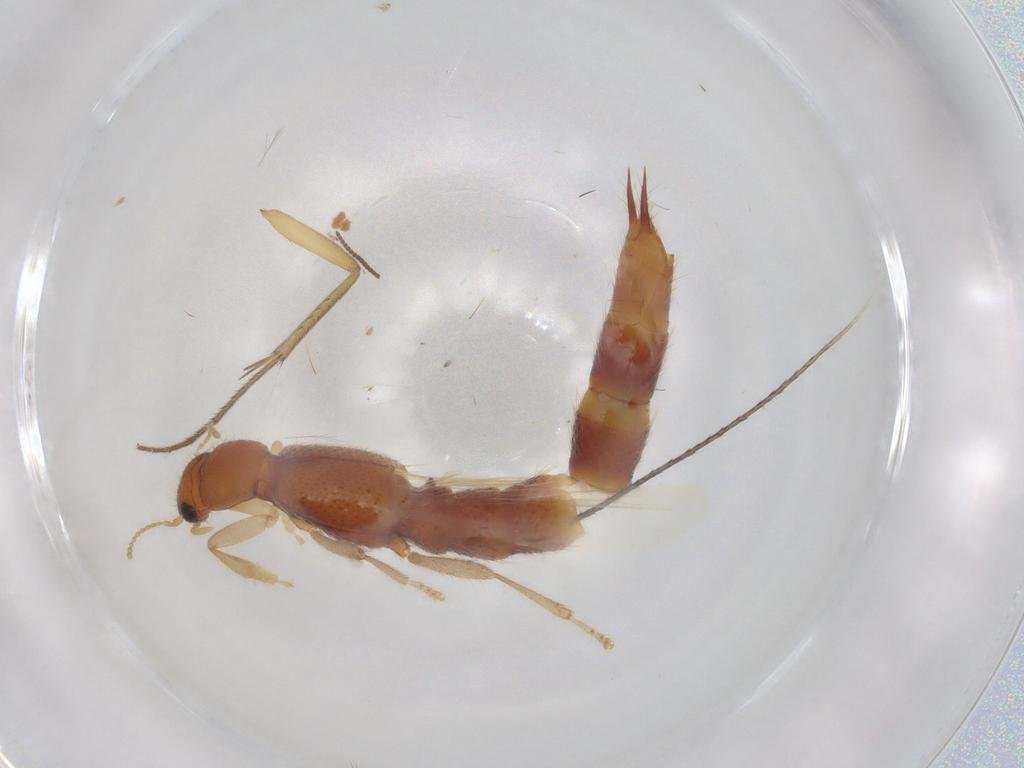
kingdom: Animalia
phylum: Arthropoda
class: Insecta
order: Coleoptera
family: Staphylinidae
